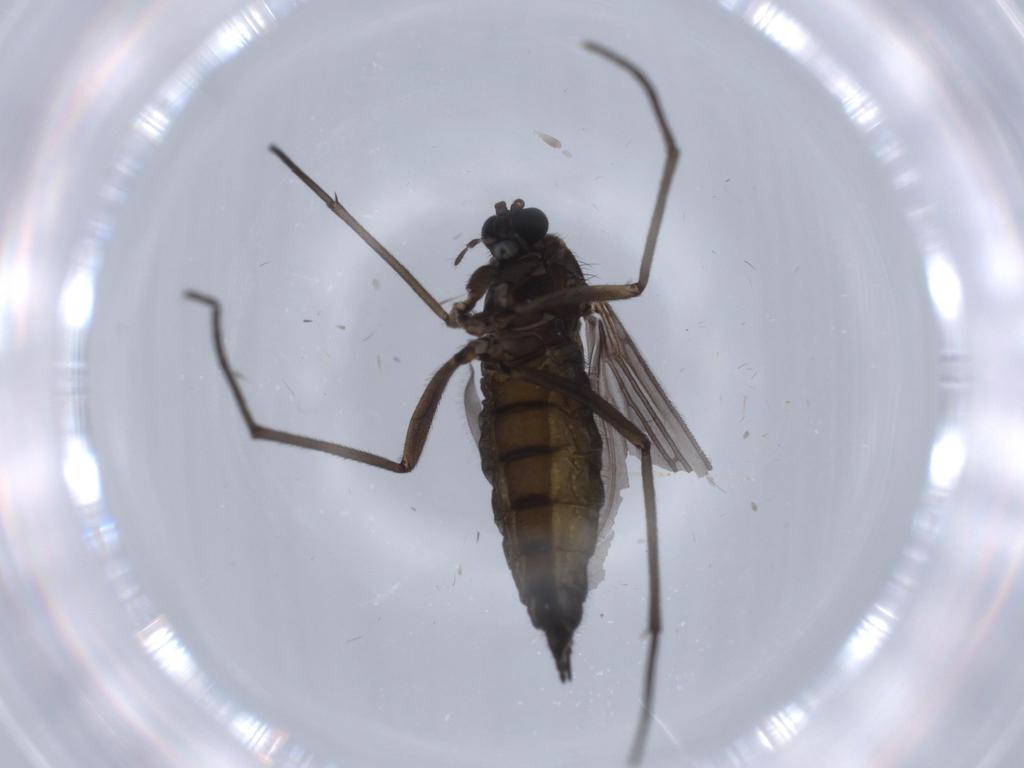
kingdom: Animalia
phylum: Arthropoda
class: Insecta
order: Diptera
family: Sciaridae
